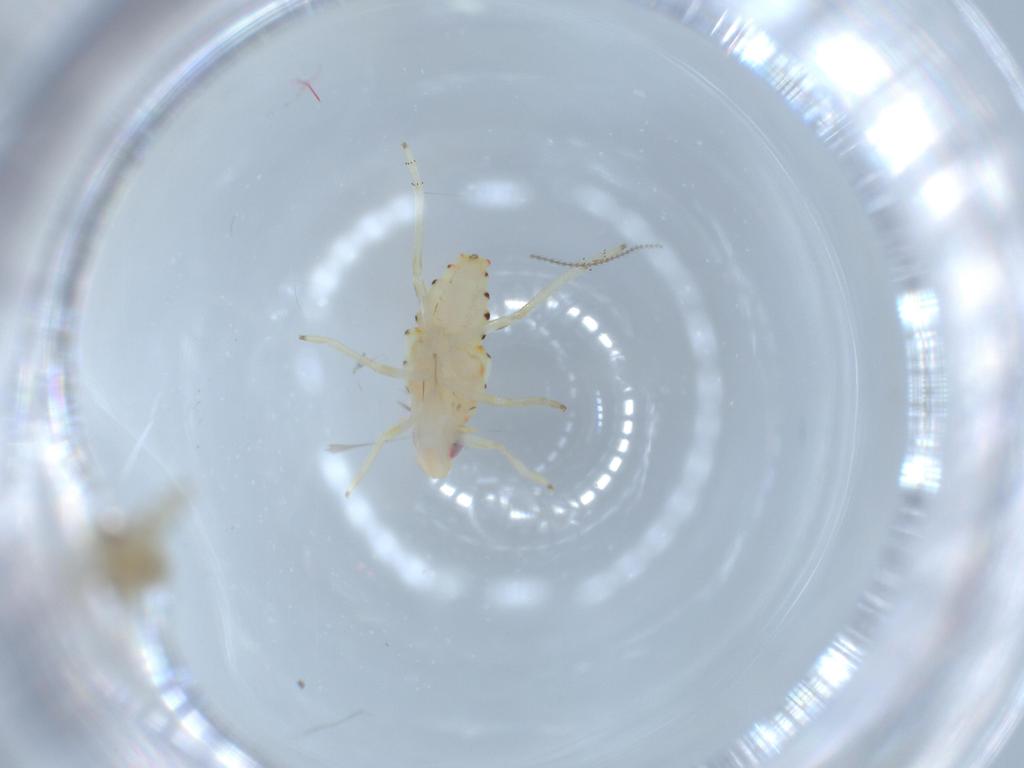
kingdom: Animalia
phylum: Arthropoda
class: Insecta
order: Hemiptera
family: Tropiduchidae
